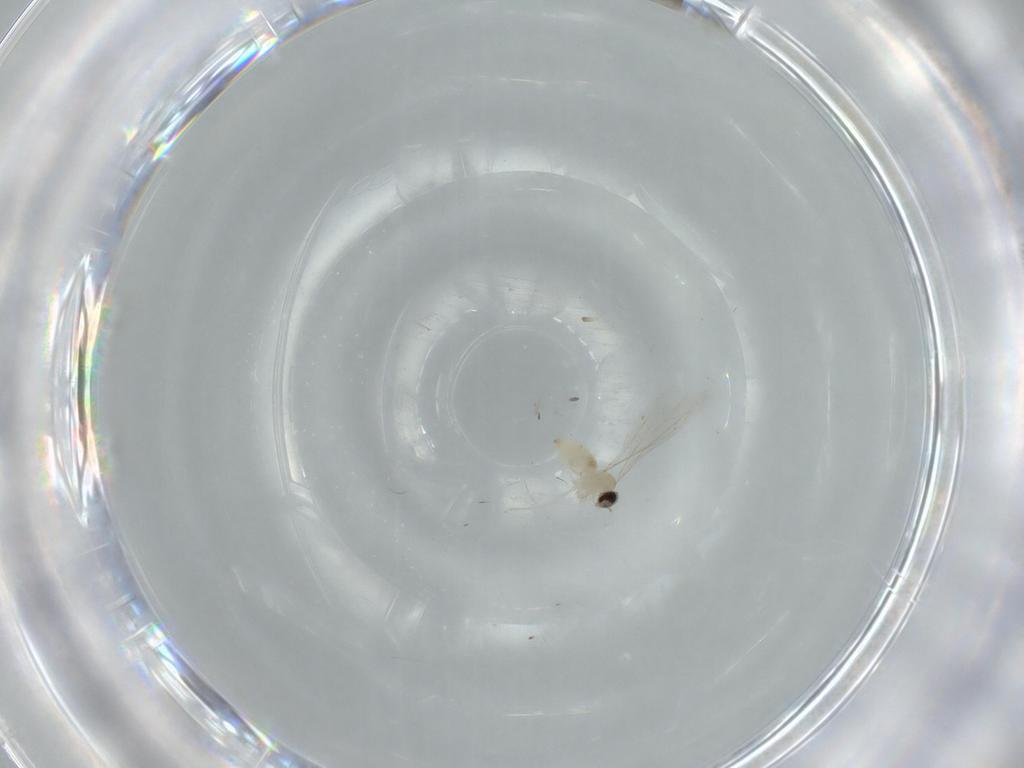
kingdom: Animalia
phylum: Arthropoda
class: Insecta
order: Diptera
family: Cecidomyiidae
